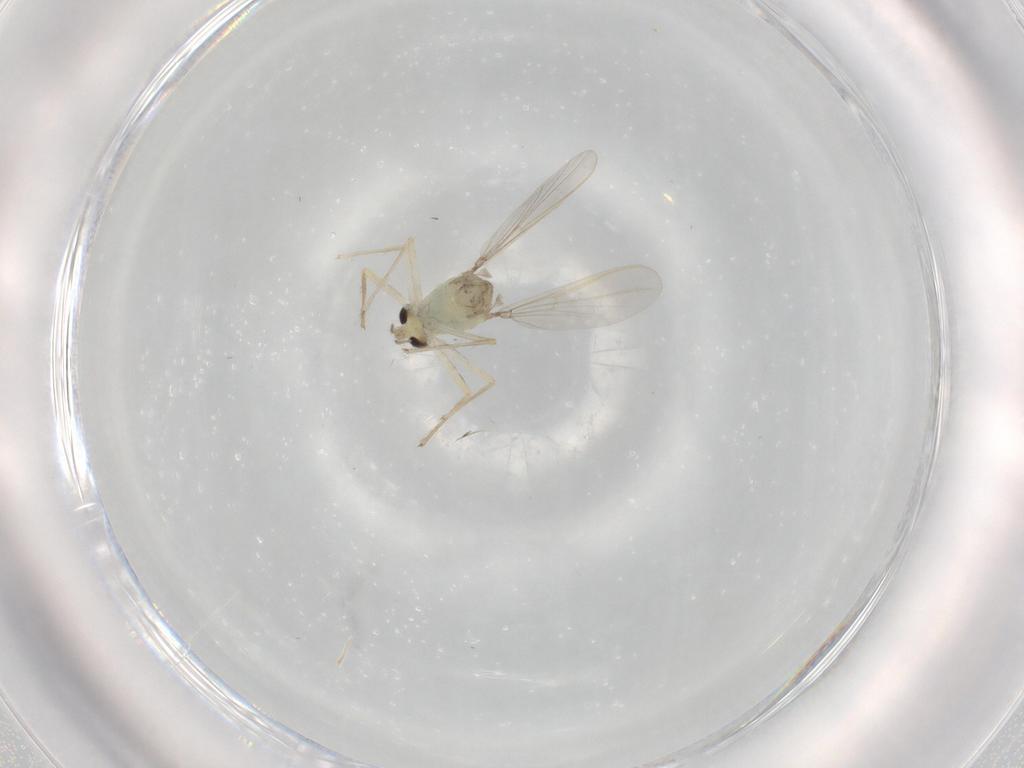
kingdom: Animalia
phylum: Arthropoda
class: Insecta
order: Diptera
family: Chironomidae
